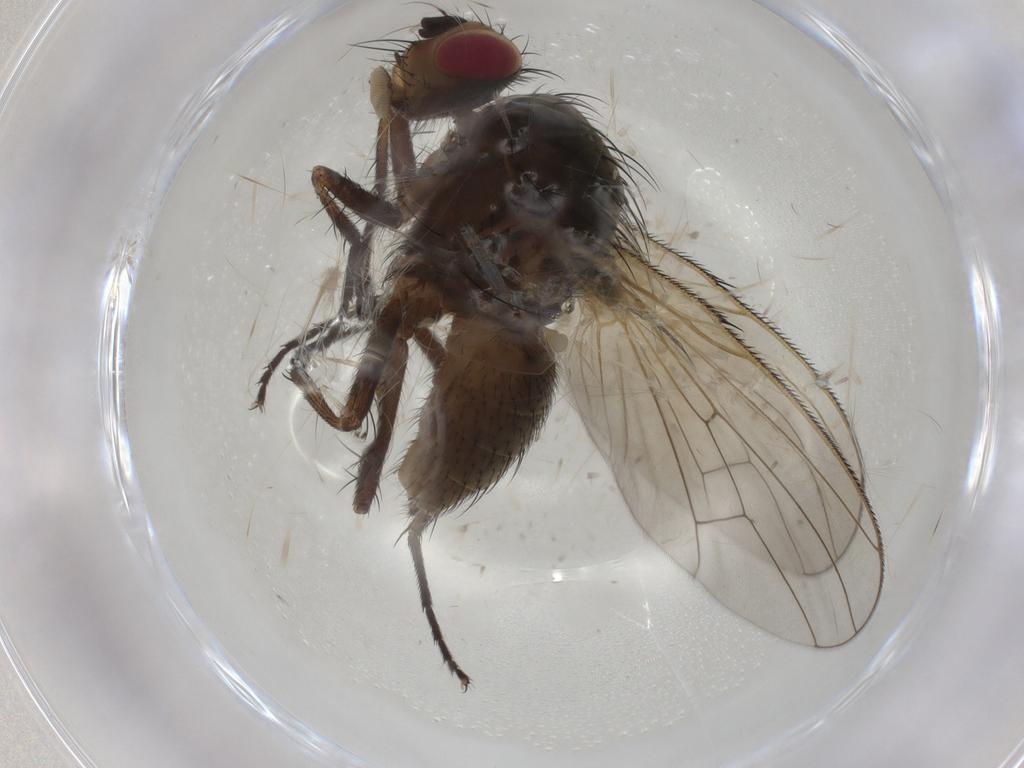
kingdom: Animalia
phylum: Arthropoda
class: Insecta
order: Diptera
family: Anthomyiidae
